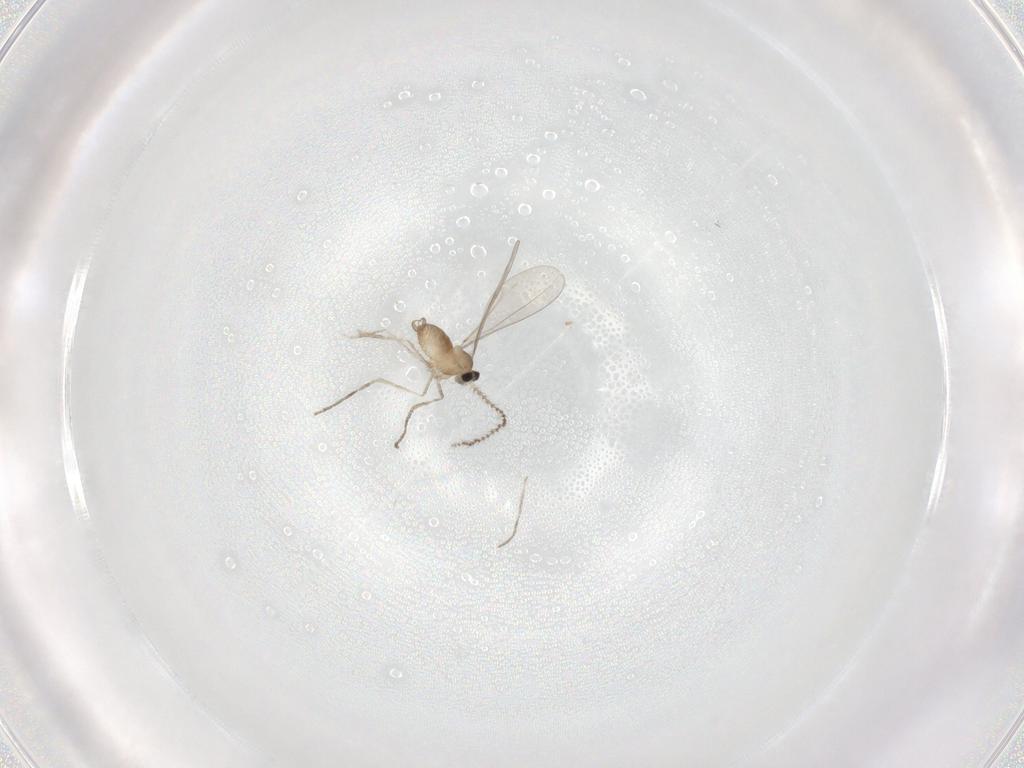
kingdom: Animalia
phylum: Arthropoda
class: Insecta
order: Diptera
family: Cecidomyiidae
